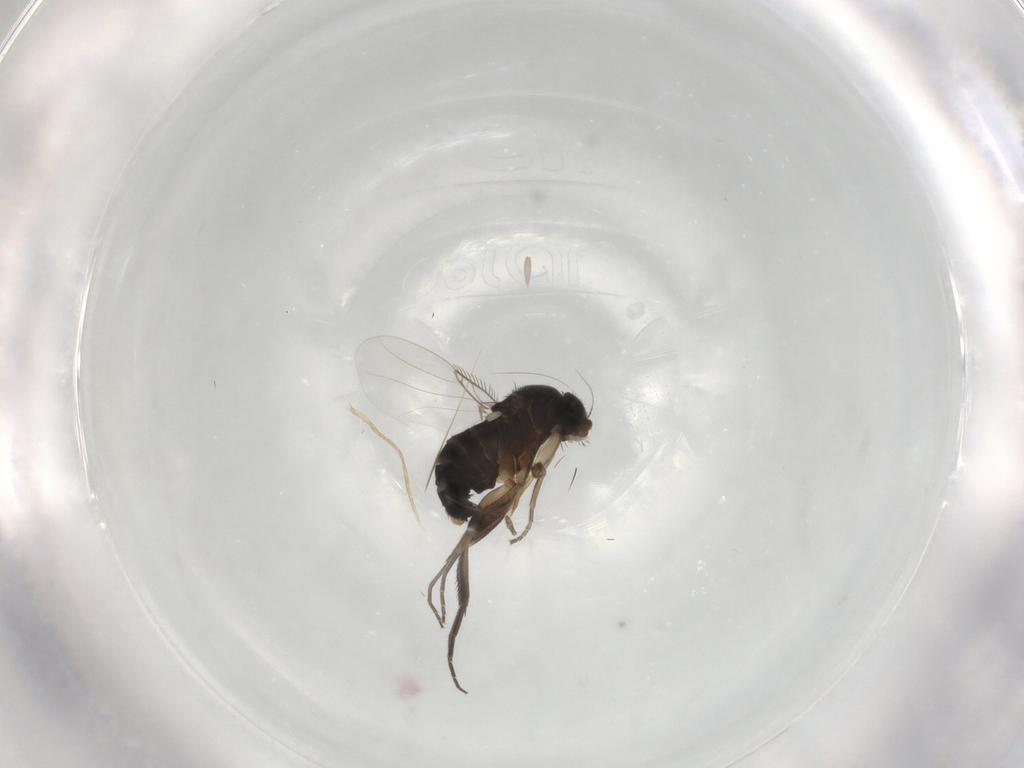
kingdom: Animalia
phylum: Arthropoda
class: Insecta
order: Diptera
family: Phoridae
